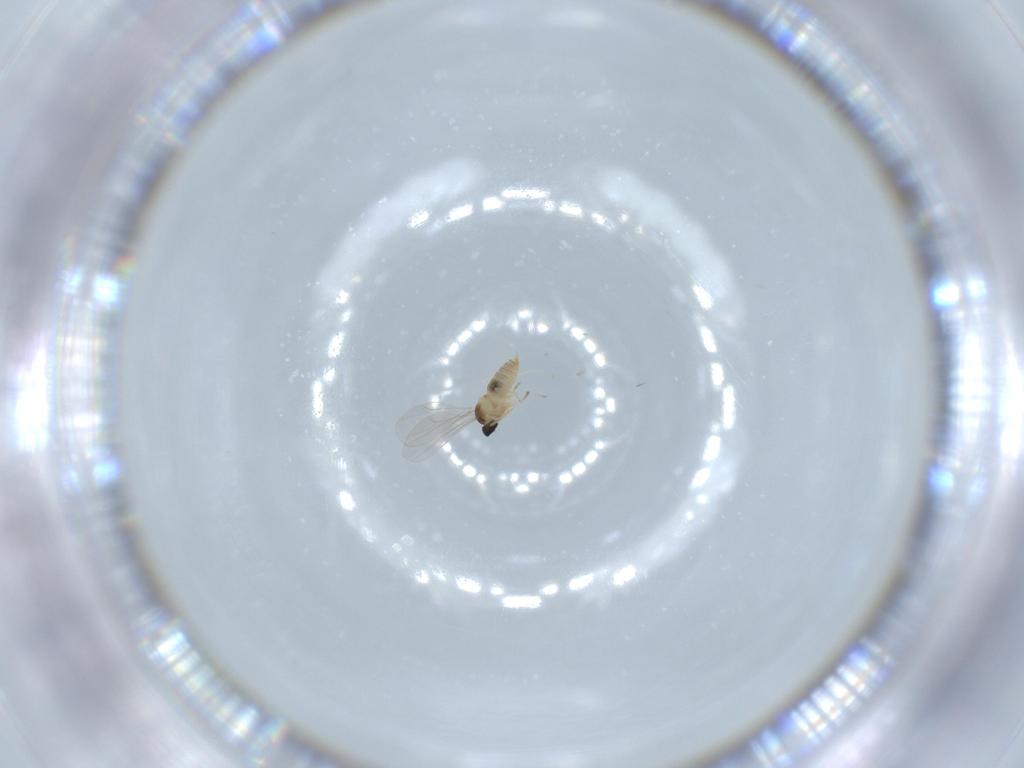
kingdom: Animalia
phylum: Arthropoda
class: Insecta
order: Diptera
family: Cecidomyiidae
